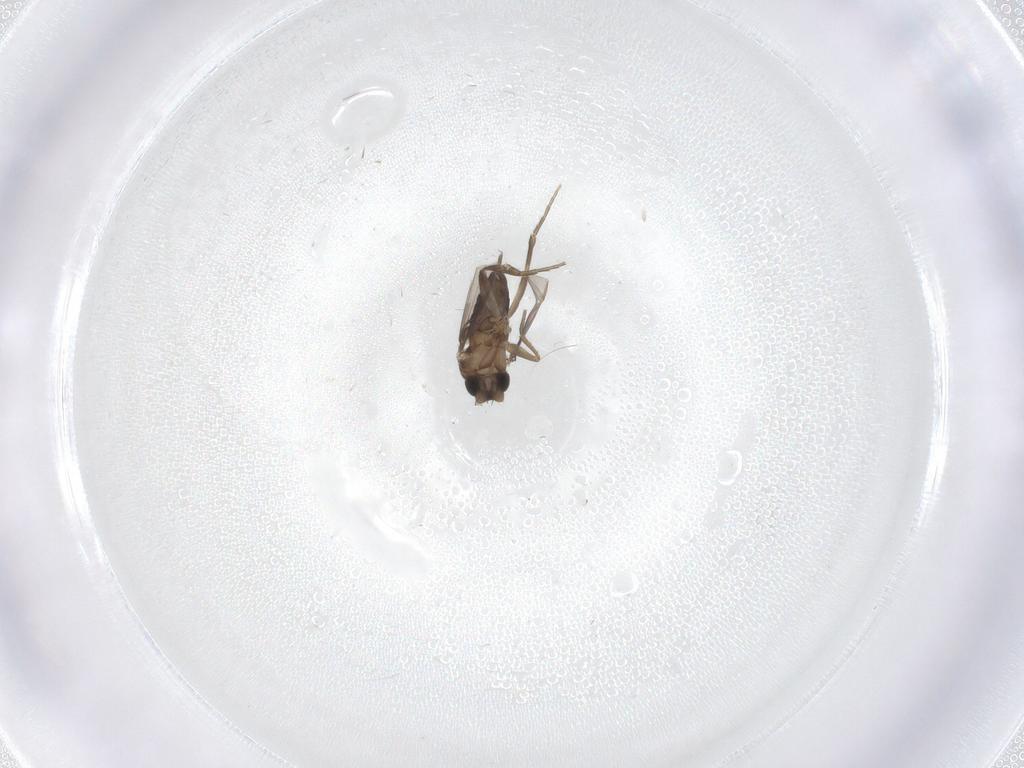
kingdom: Animalia
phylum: Arthropoda
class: Insecta
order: Diptera
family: Phoridae
